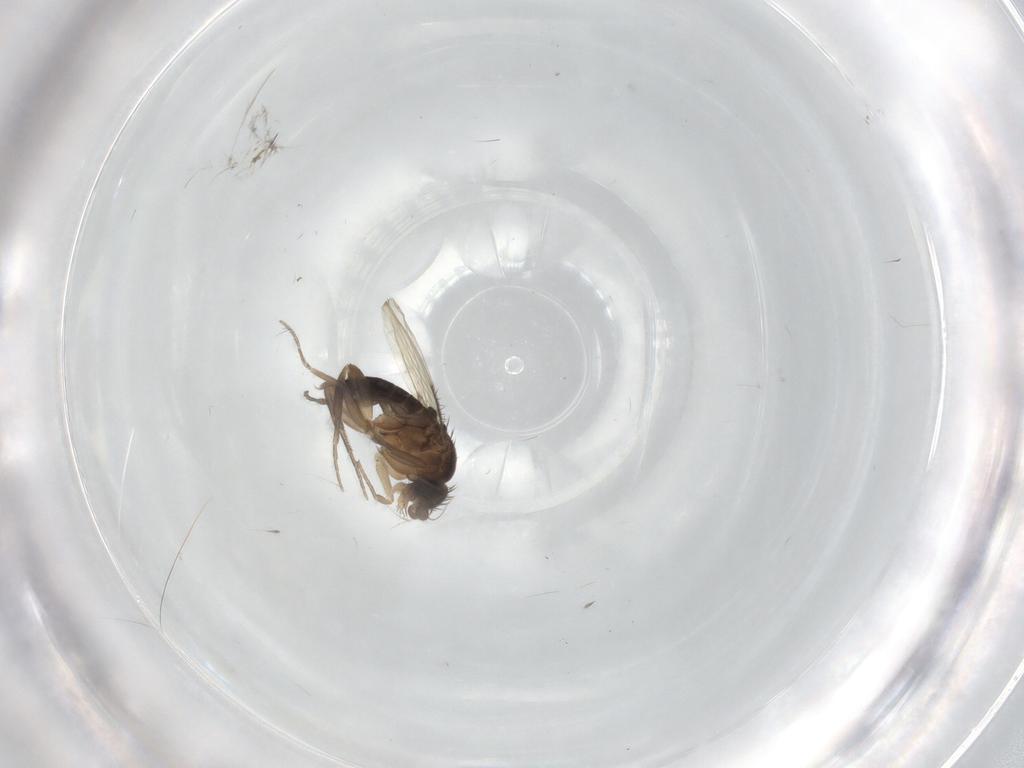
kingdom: Animalia
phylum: Arthropoda
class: Insecta
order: Diptera
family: Phoridae
